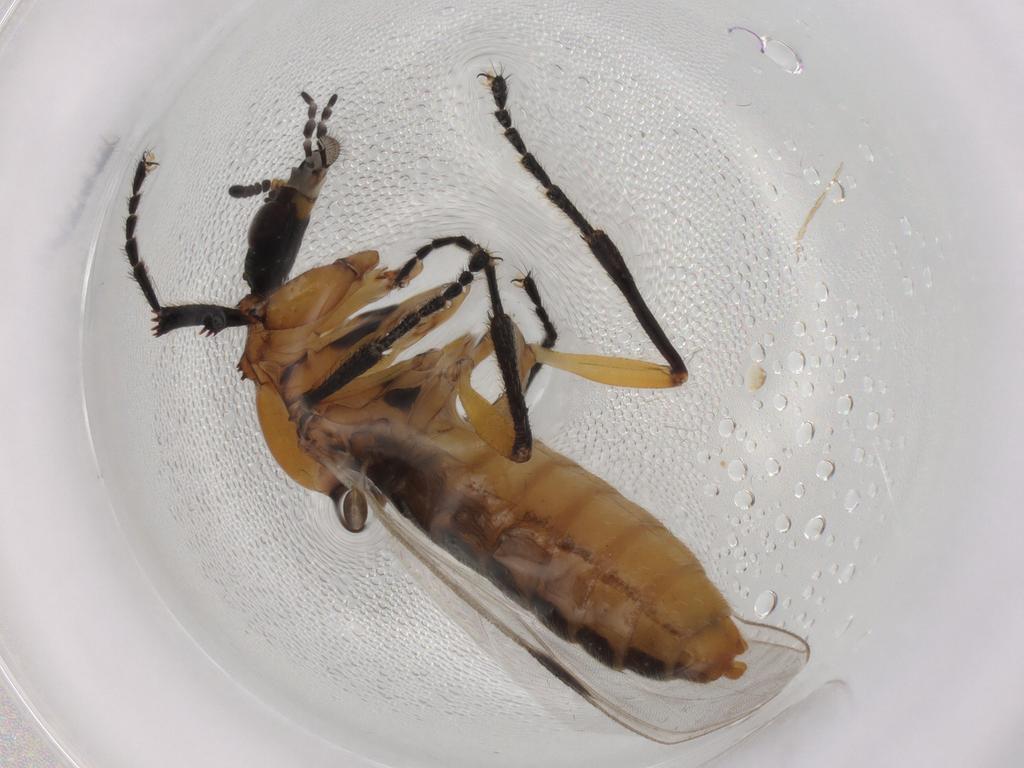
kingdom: Animalia
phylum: Arthropoda
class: Insecta
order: Diptera
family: Bibionidae
